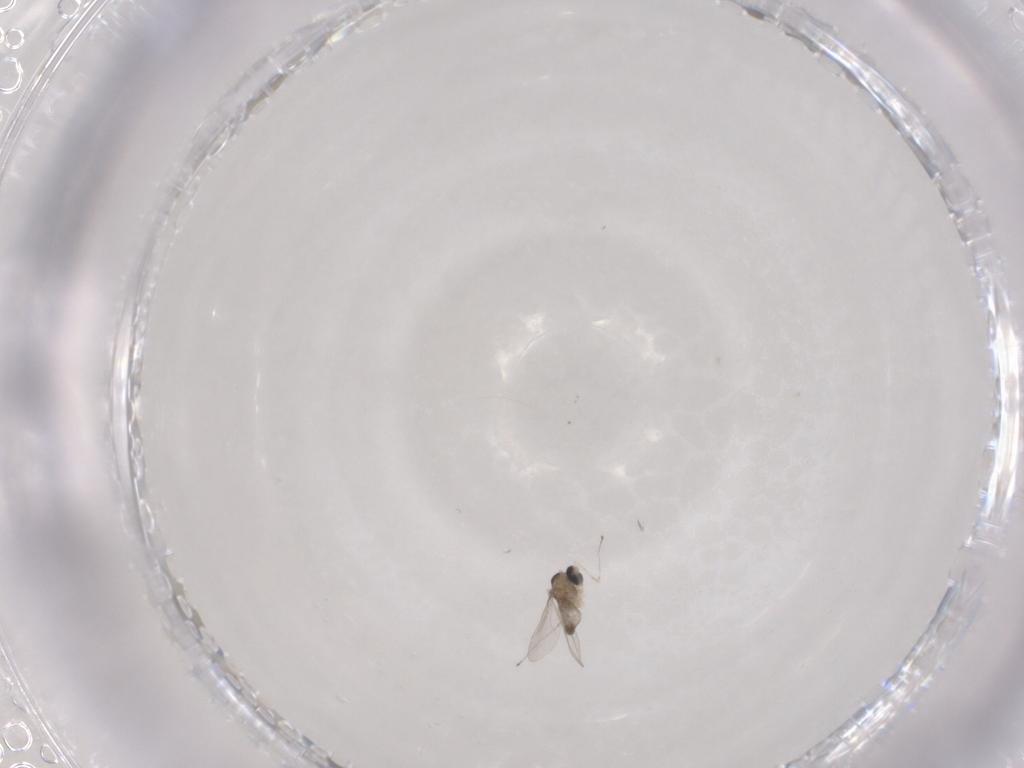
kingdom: Animalia
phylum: Arthropoda
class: Insecta
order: Diptera
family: Cecidomyiidae
